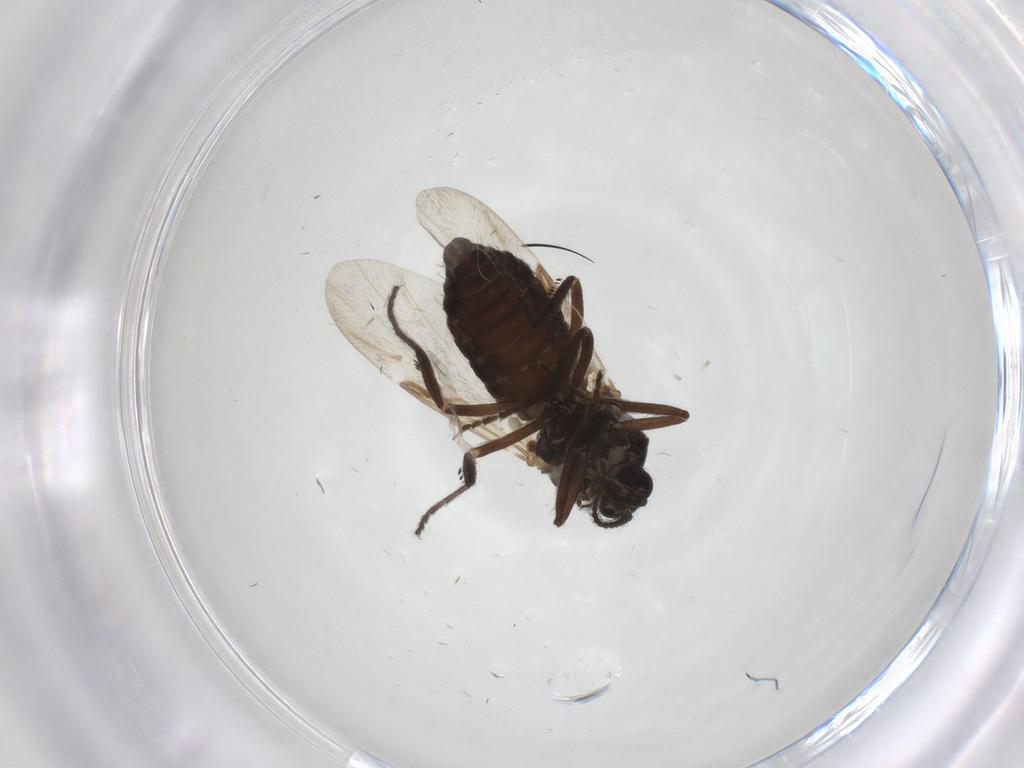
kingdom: Animalia
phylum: Arthropoda
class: Insecta
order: Diptera
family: Ceratopogonidae
